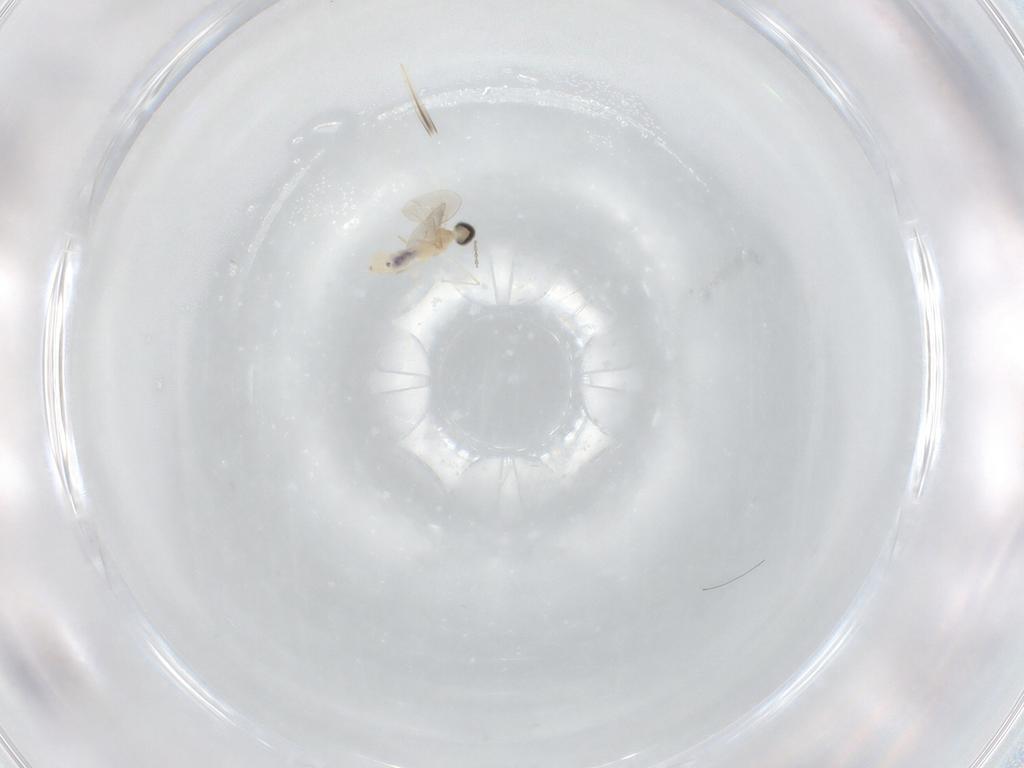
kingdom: Animalia
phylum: Arthropoda
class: Insecta
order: Diptera
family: Cecidomyiidae
